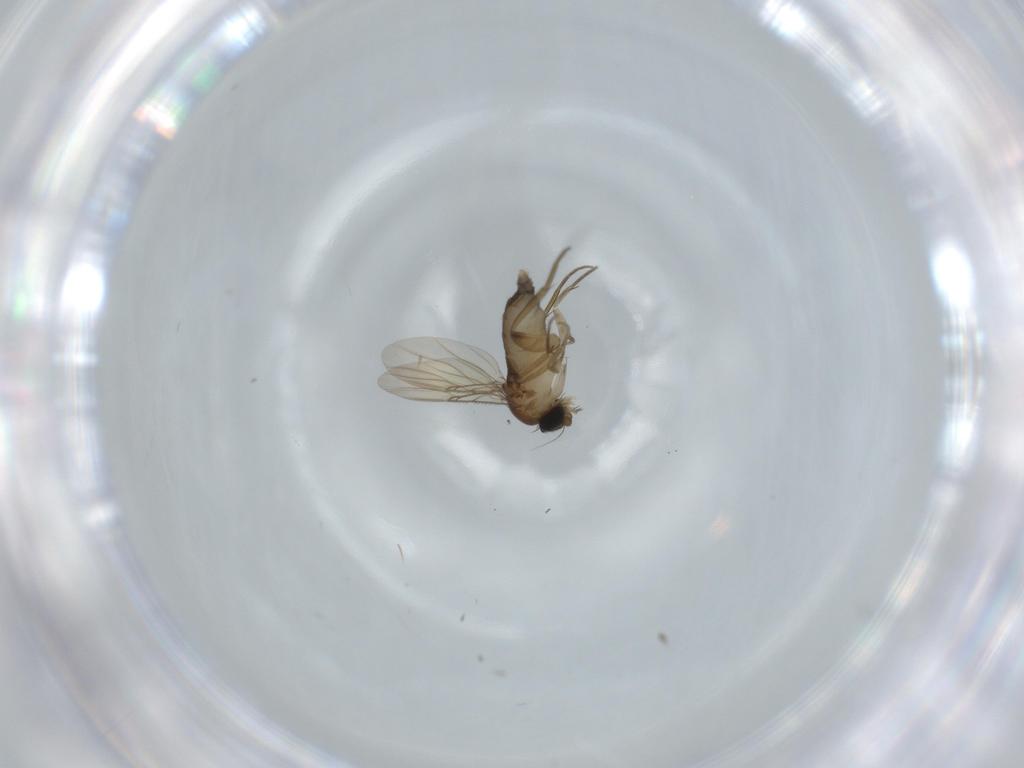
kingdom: Animalia
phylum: Arthropoda
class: Insecta
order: Diptera
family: Phoridae
